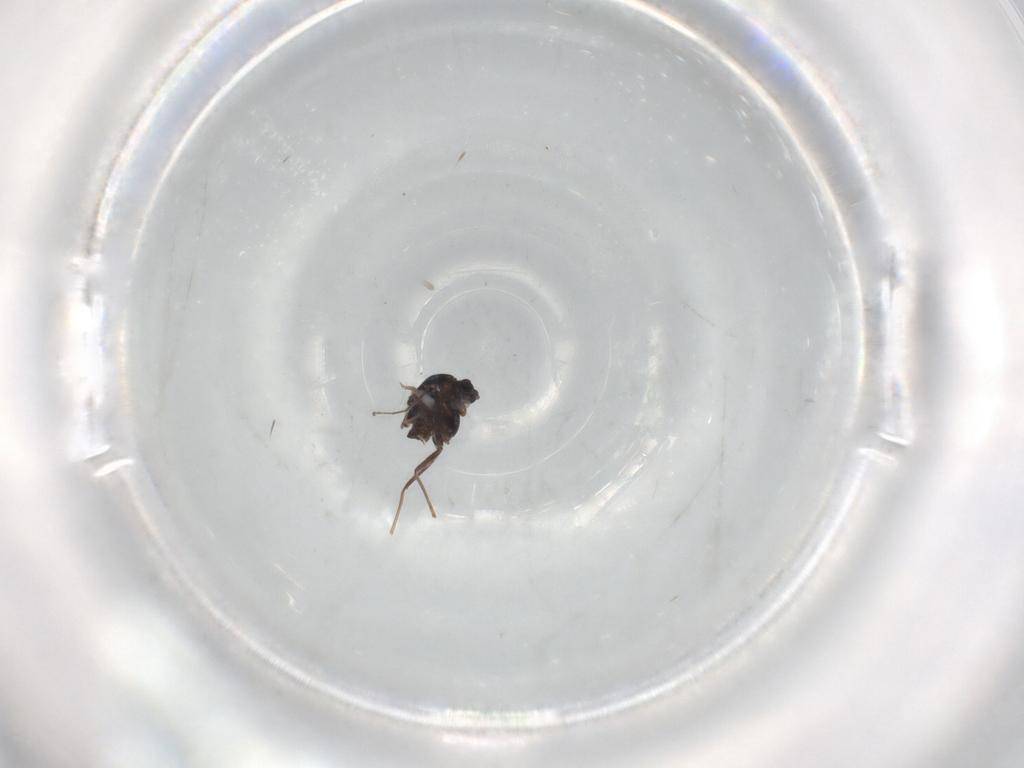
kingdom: Animalia
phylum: Arthropoda
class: Insecta
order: Diptera
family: Chironomidae
